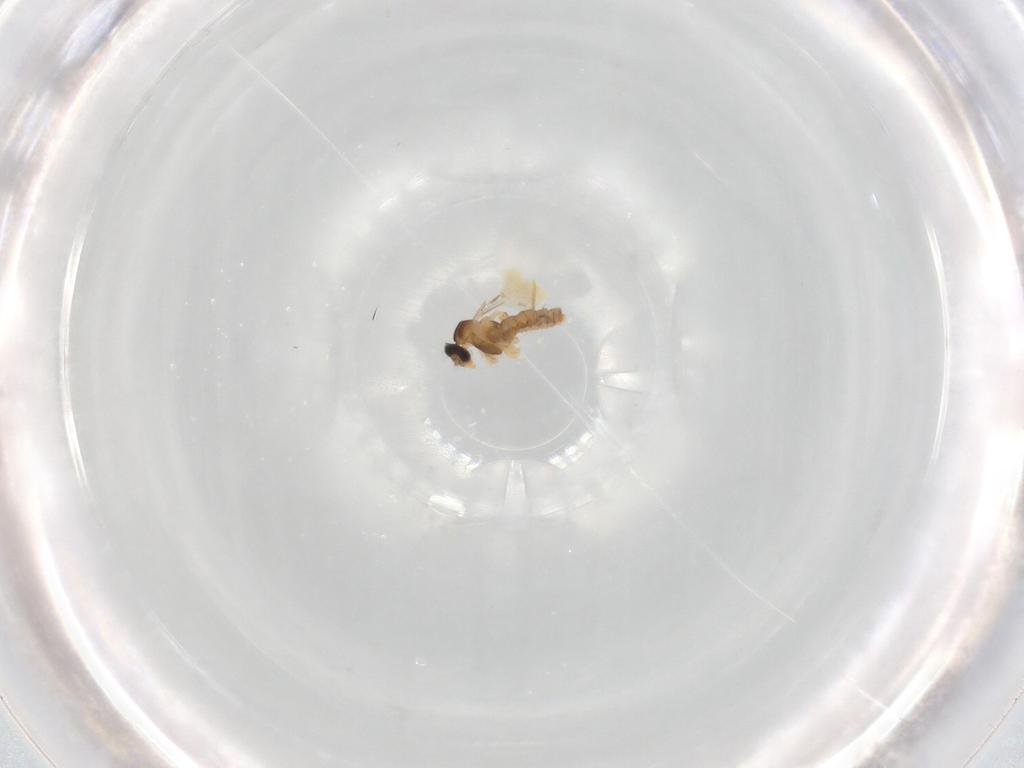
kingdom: Animalia
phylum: Arthropoda
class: Insecta
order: Diptera
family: Glossinidae
